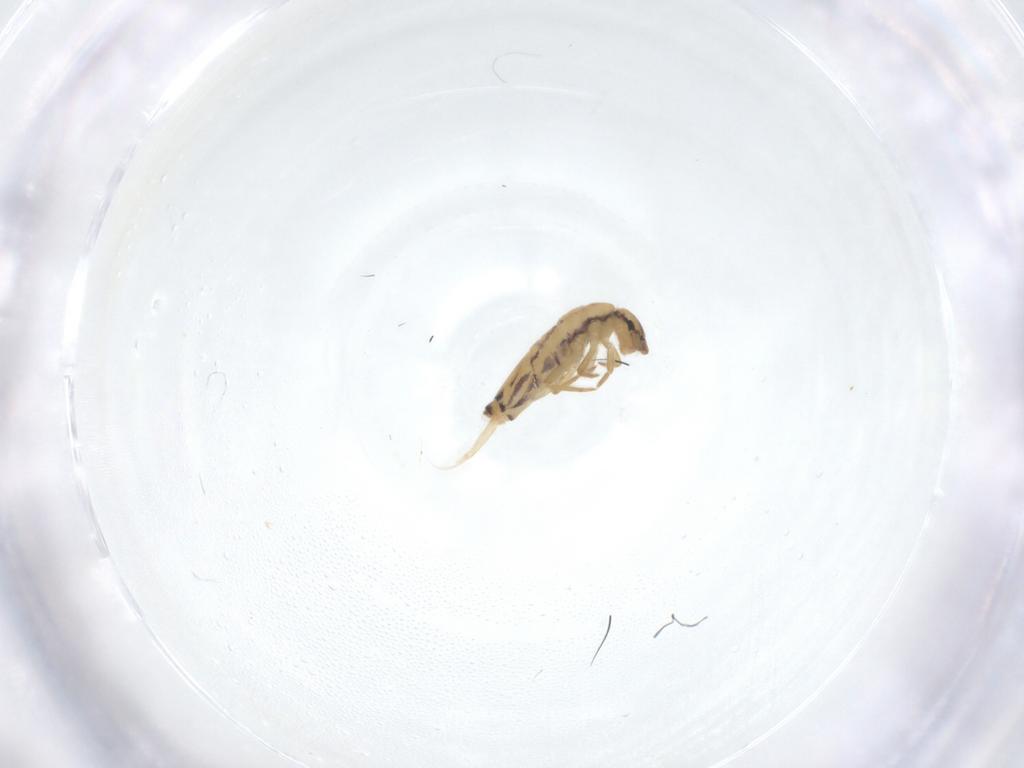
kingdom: Animalia
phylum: Arthropoda
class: Collembola
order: Entomobryomorpha
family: Entomobryidae
